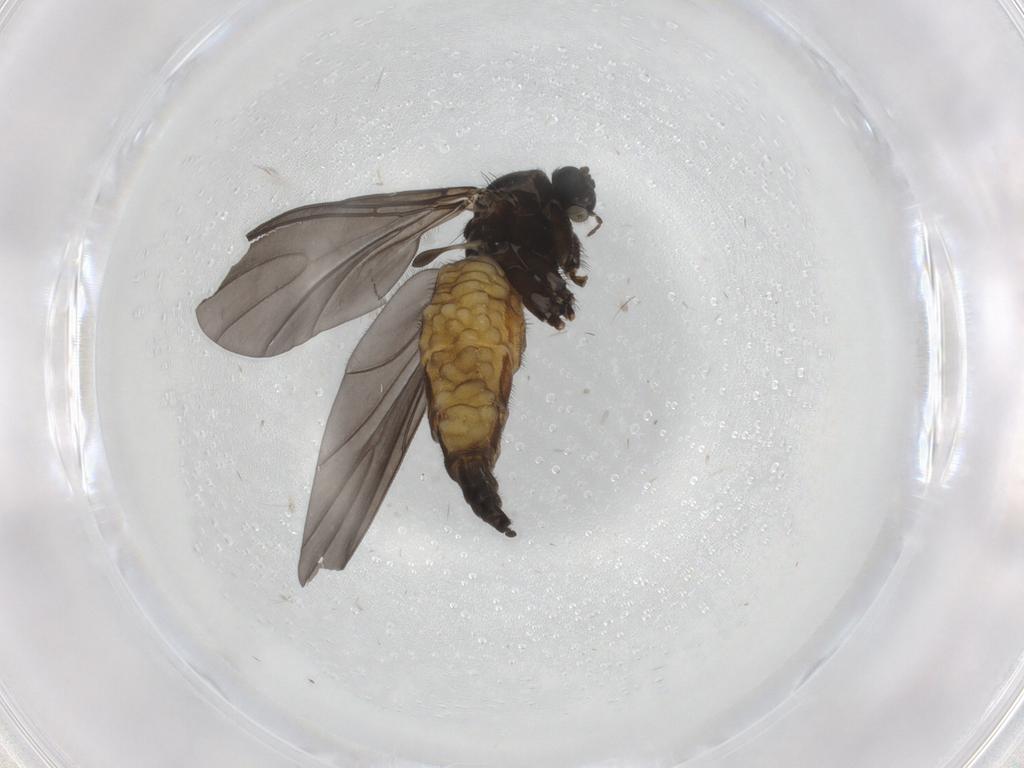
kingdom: Animalia
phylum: Arthropoda
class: Insecta
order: Diptera
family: Sciaridae
